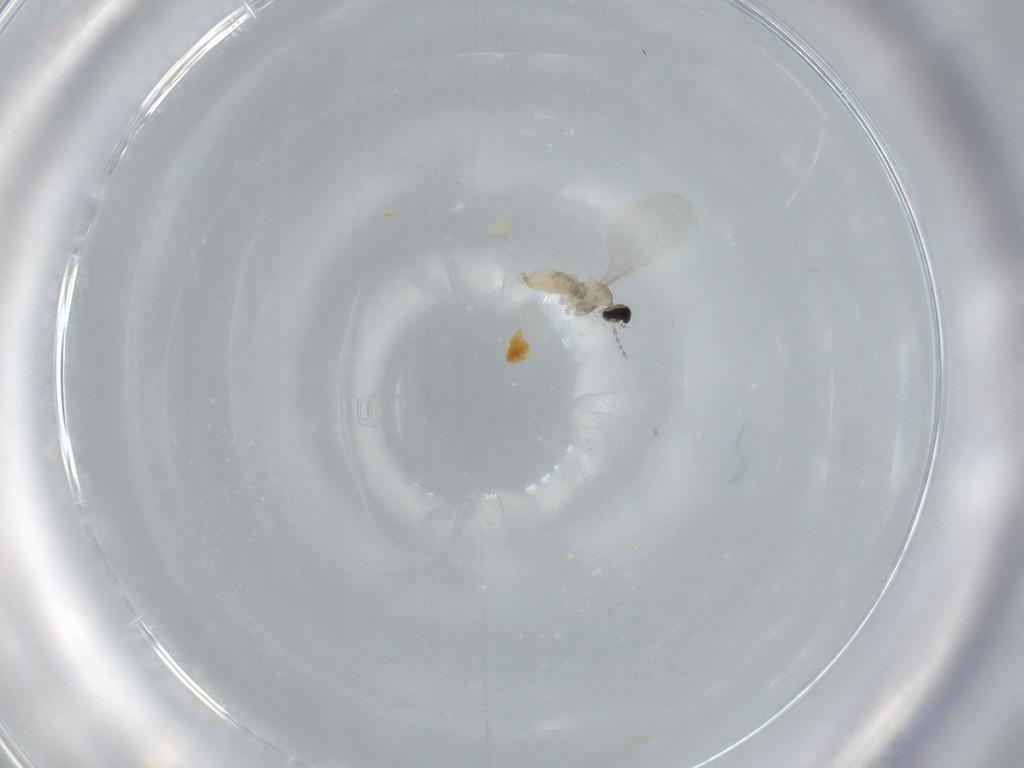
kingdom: Animalia
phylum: Arthropoda
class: Insecta
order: Diptera
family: Cecidomyiidae
